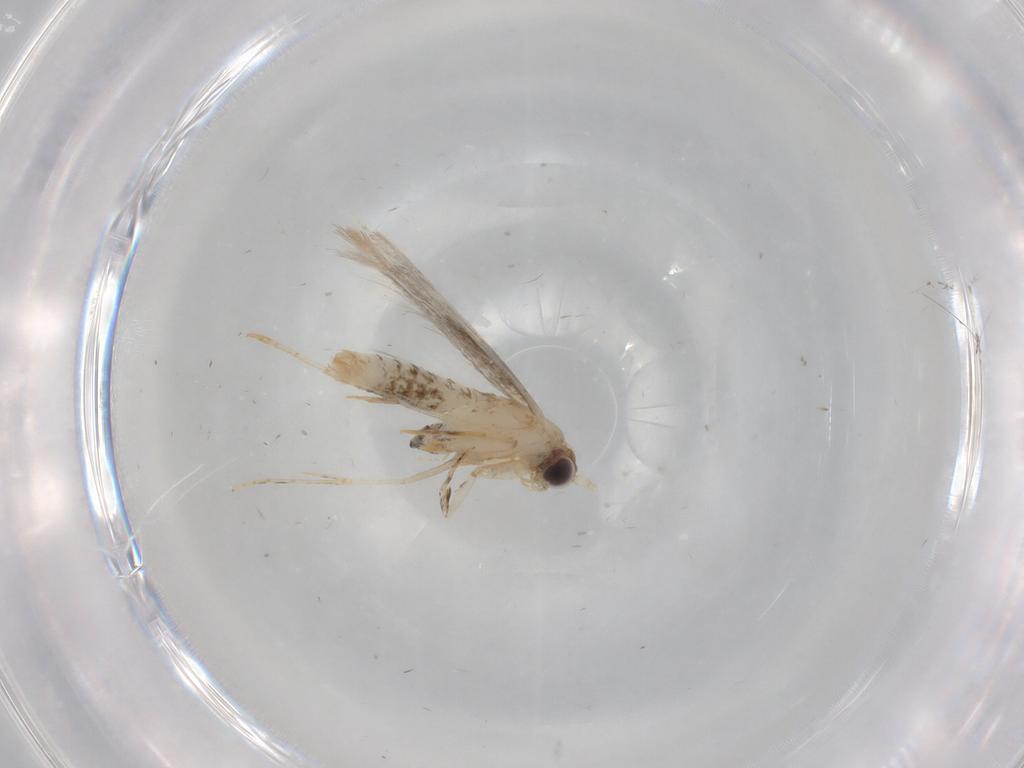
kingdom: Animalia
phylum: Arthropoda
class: Insecta
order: Lepidoptera
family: Tineidae
